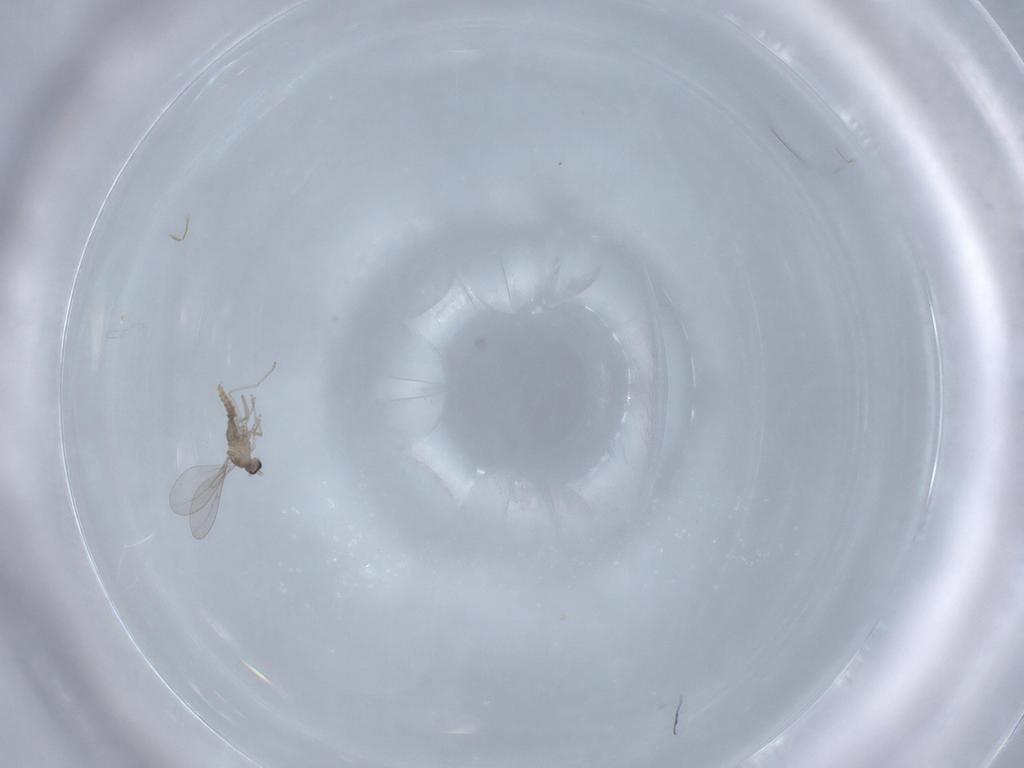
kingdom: Animalia
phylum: Arthropoda
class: Insecta
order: Diptera
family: Cecidomyiidae
